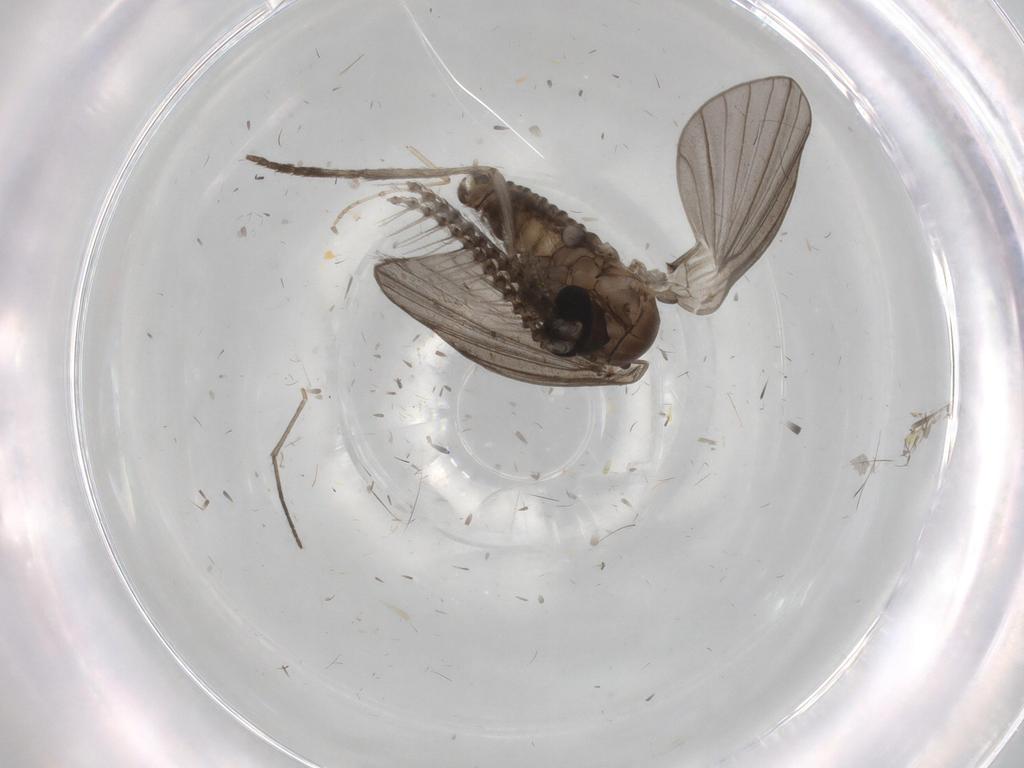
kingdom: Animalia
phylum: Arthropoda
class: Insecta
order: Diptera
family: Psychodidae
